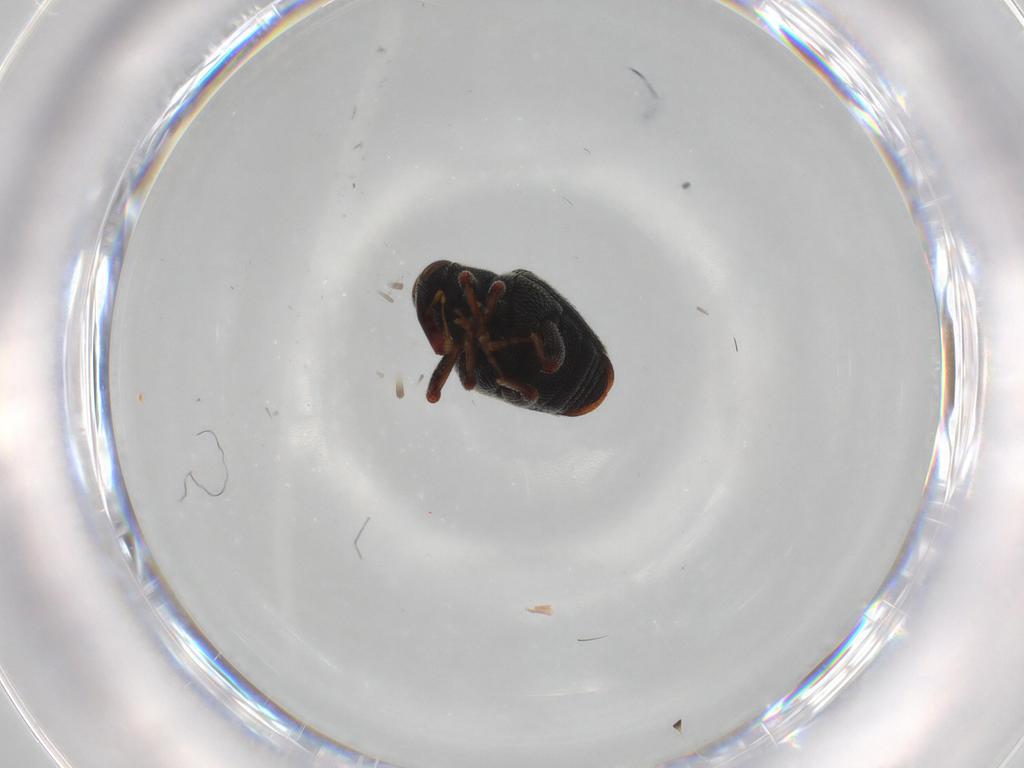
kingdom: Animalia
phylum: Arthropoda
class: Insecta
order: Coleoptera
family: Curculionidae
